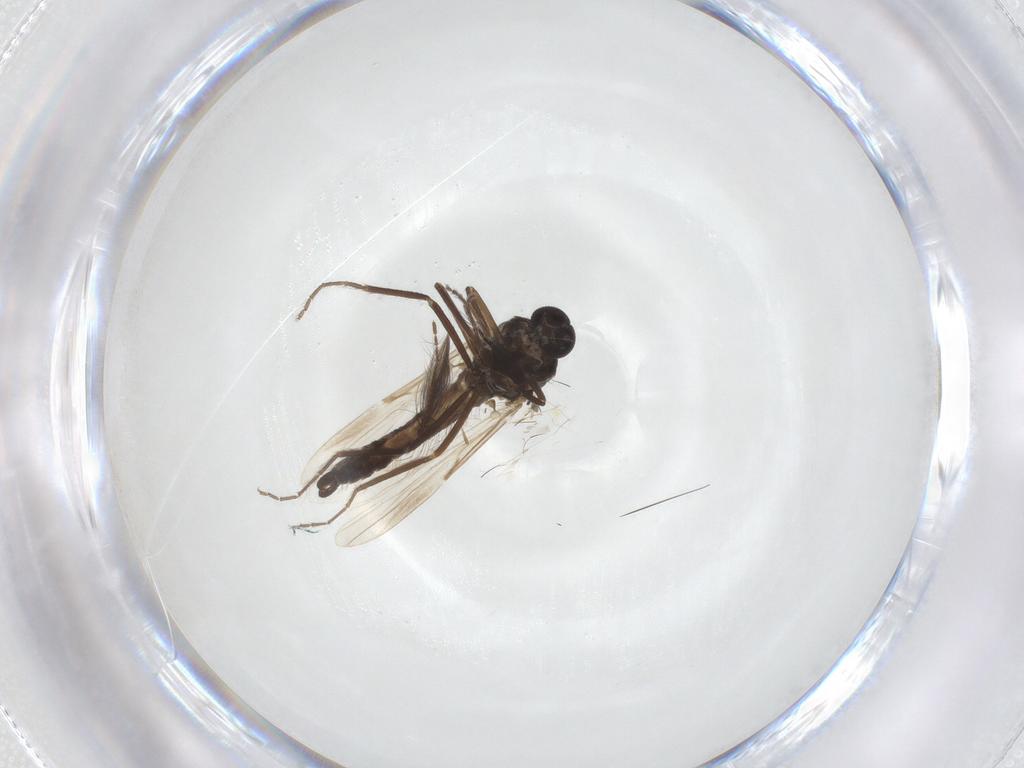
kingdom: Animalia
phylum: Arthropoda
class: Insecta
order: Diptera
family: Ceratopogonidae
